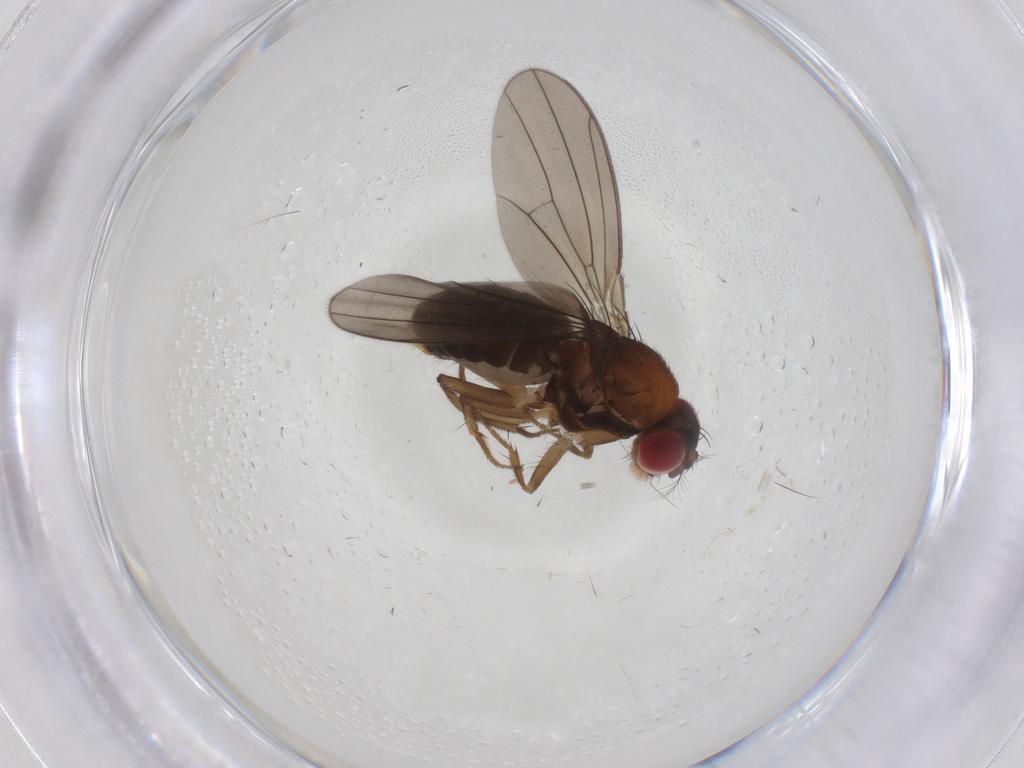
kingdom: Animalia
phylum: Arthropoda
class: Insecta
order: Diptera
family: Drosophilidae
